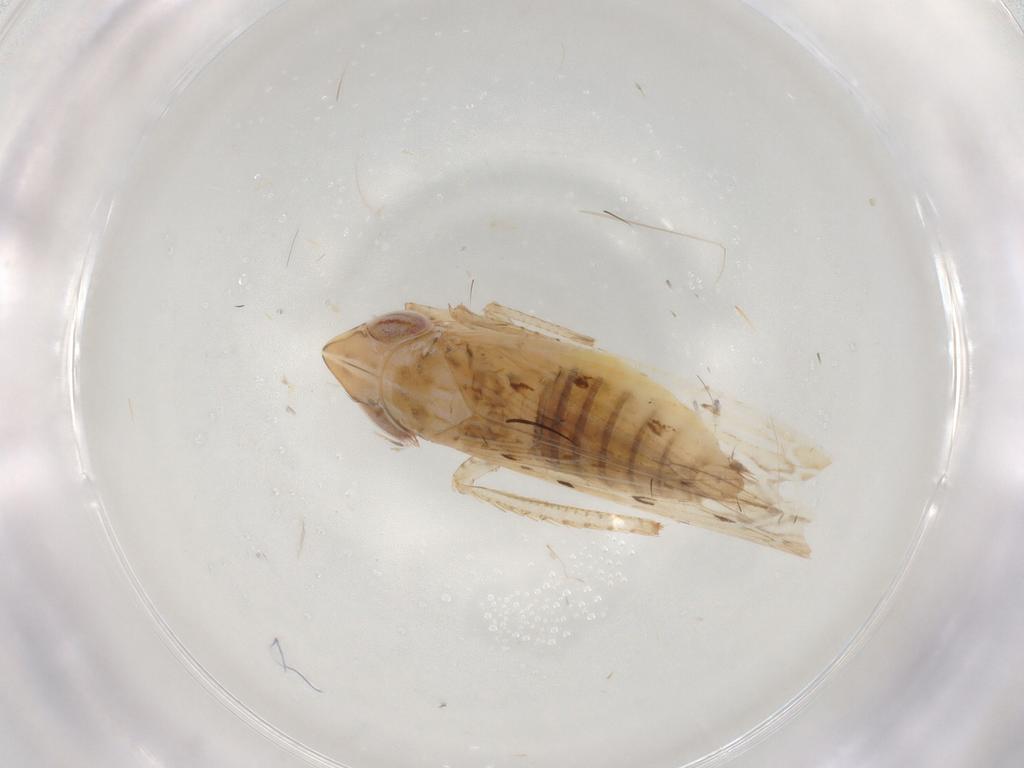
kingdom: Animalia
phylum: Arthropoda
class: Insecta
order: Hemiptera
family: Cicadellidae
